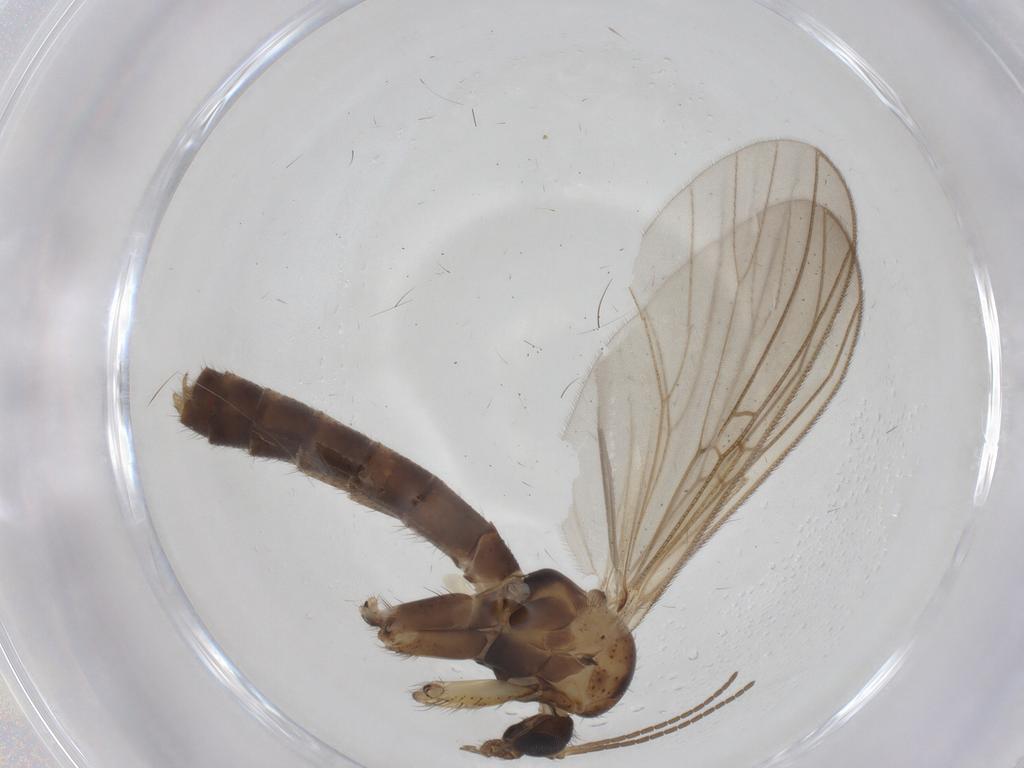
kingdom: Animalia
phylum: Arthropoda
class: Insecta
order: Diptera
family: Mycetophilidae
